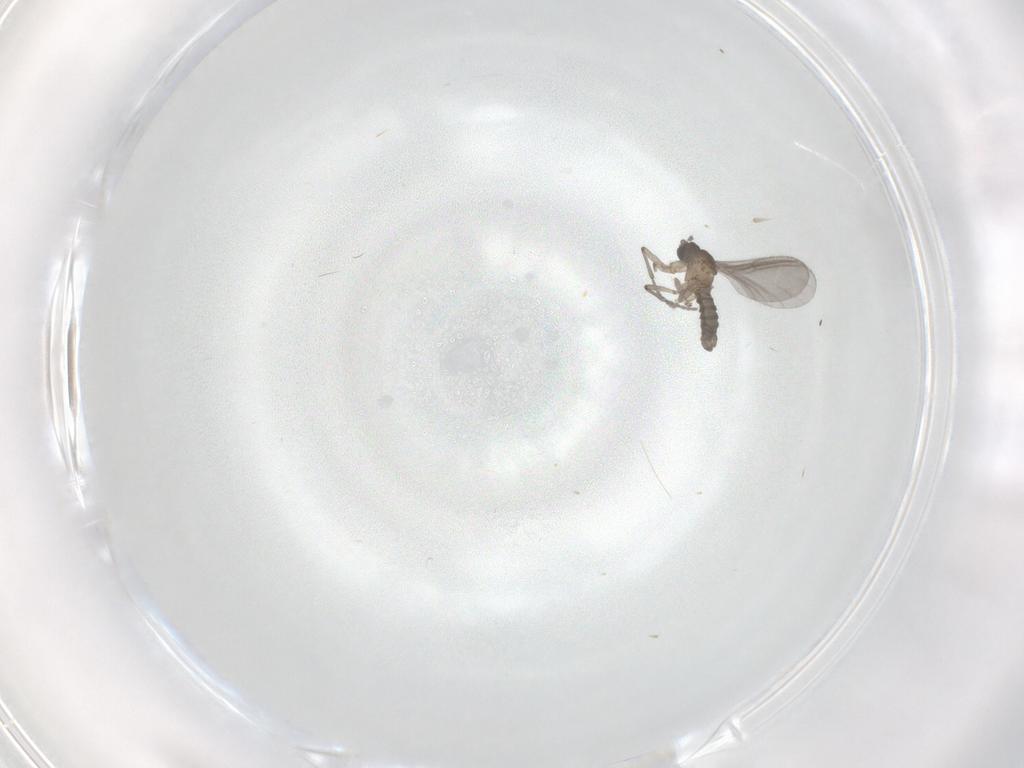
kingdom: Animalia
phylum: Arthropoda
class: Insecta
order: Diptera
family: Sciaridae
